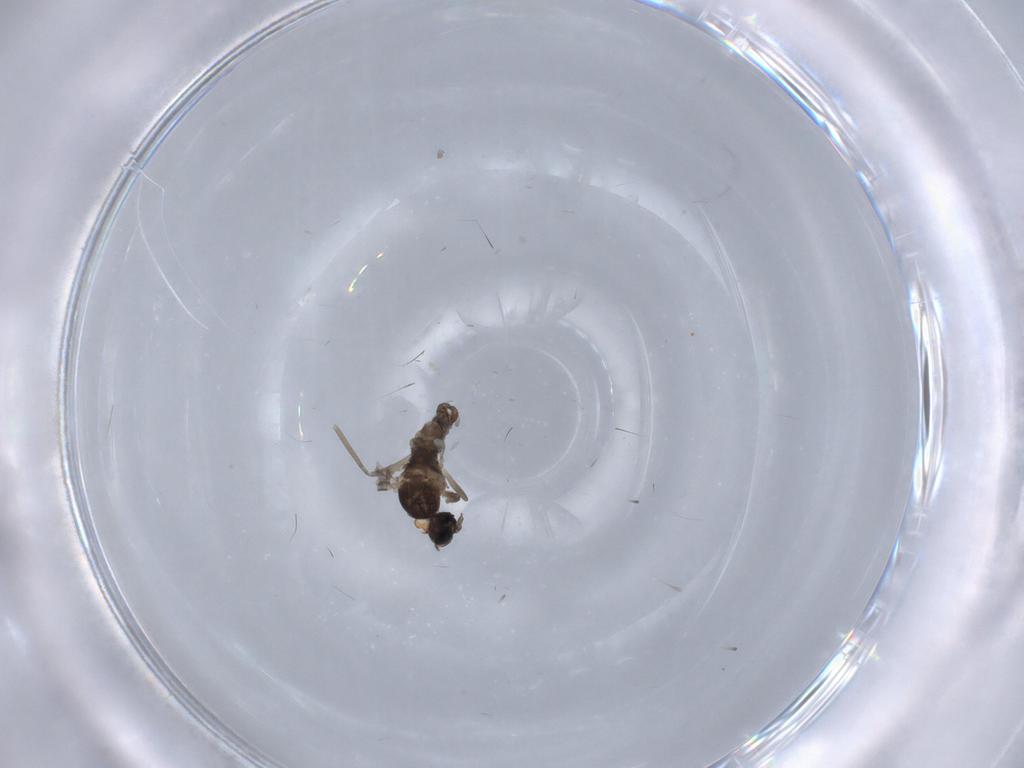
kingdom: Animalia
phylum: Arthropoda
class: Insecta
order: Diptera
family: Cecidomyiidae
